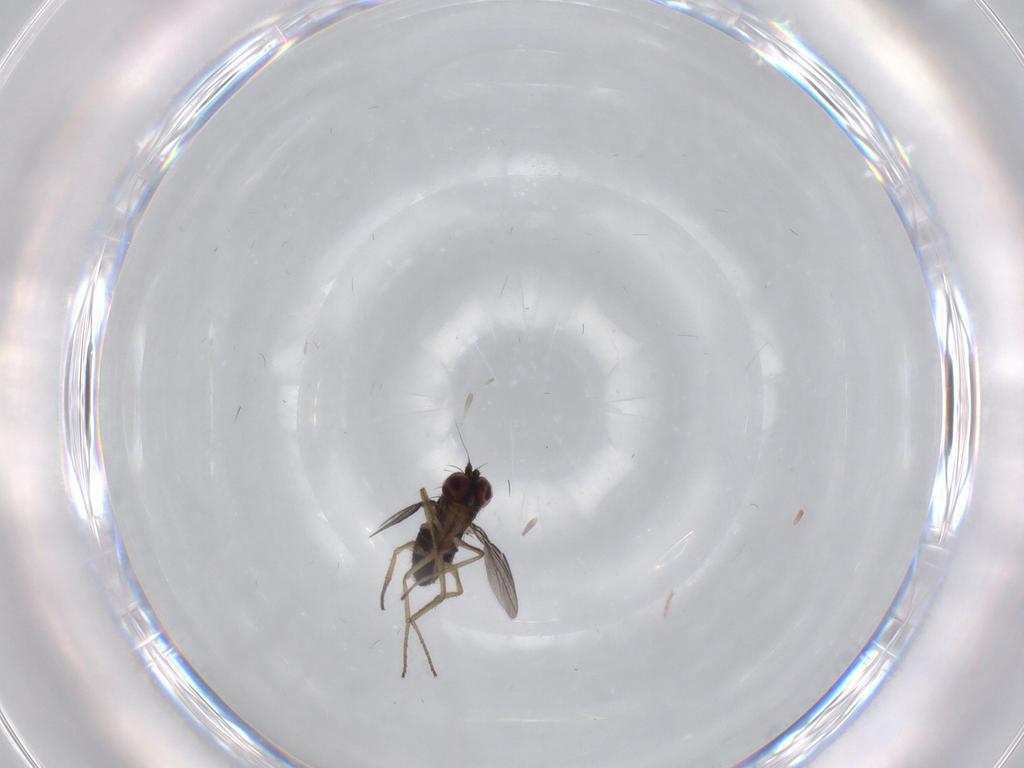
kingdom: Animalia
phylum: Arthropoda
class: Insecta
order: Diptera
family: Dolichopodidae
